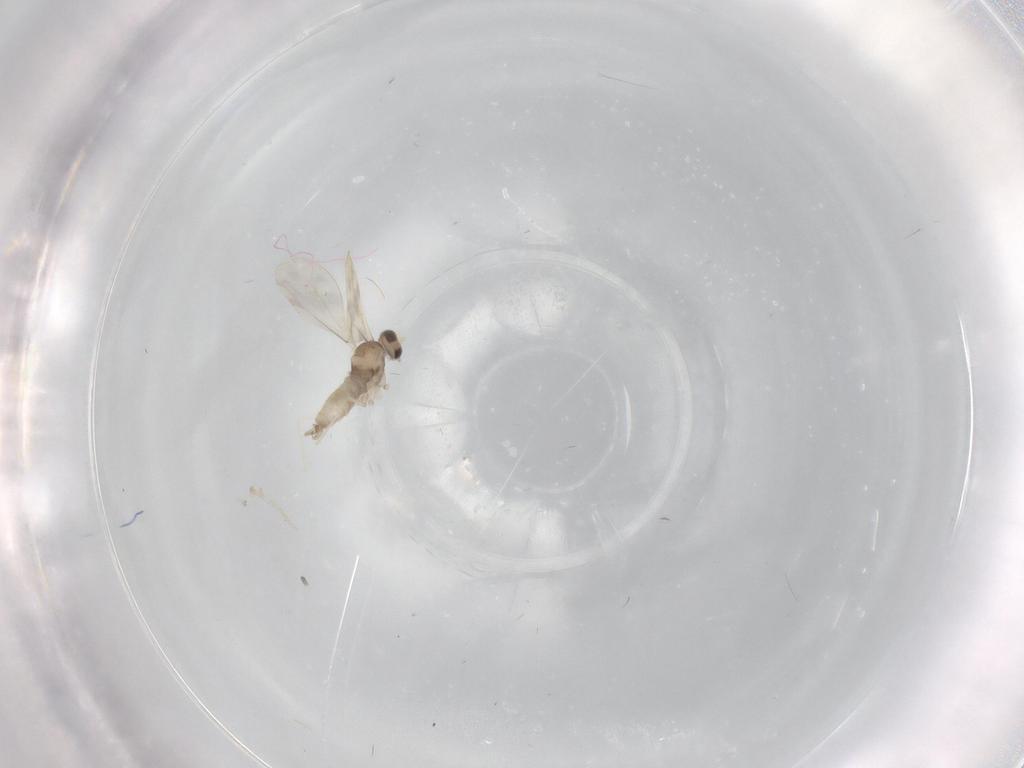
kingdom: Animalia
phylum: Arthropoda
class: Insecta
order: Diptera
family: Cecidomyiidae
